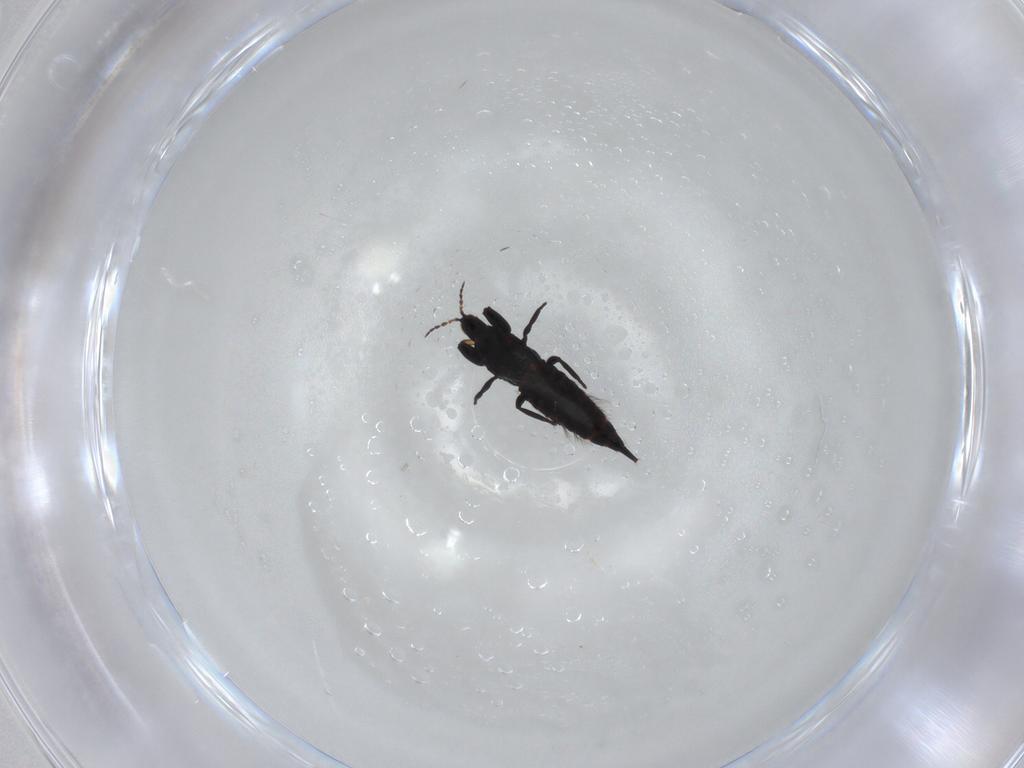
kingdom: Animalia
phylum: Arthropoda
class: Insecta
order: Thysanoptera
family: Phlaeothripidae
